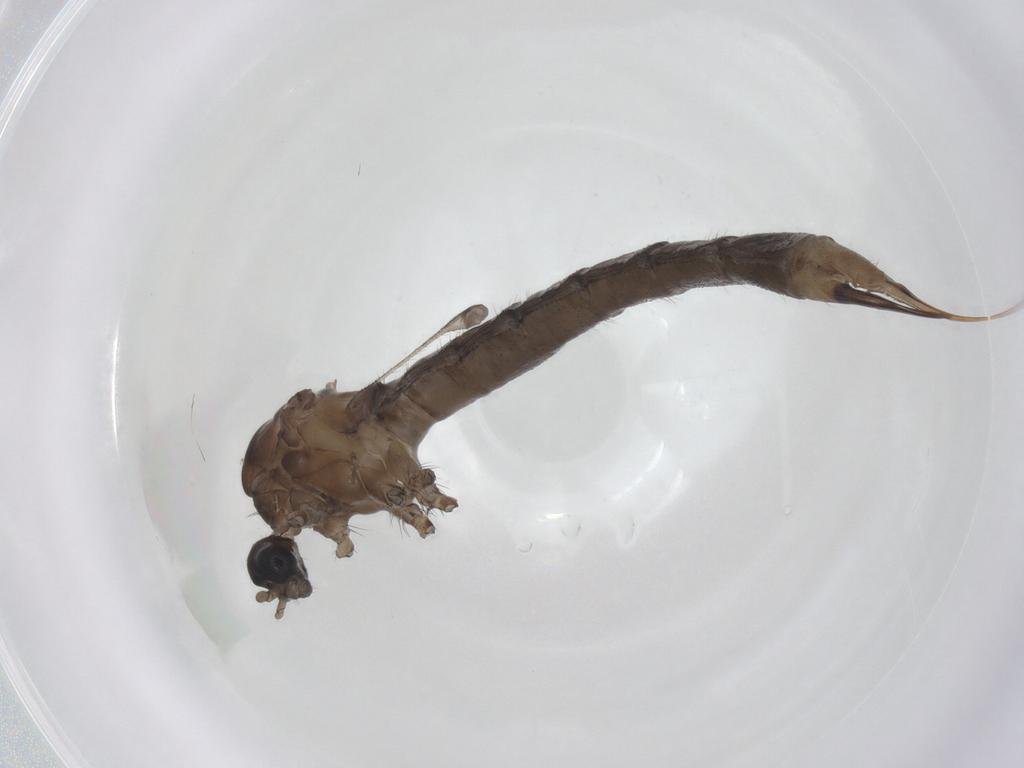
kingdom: Animalia
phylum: Arthropoda
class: Insecta
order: Diptera
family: Limoniidae
